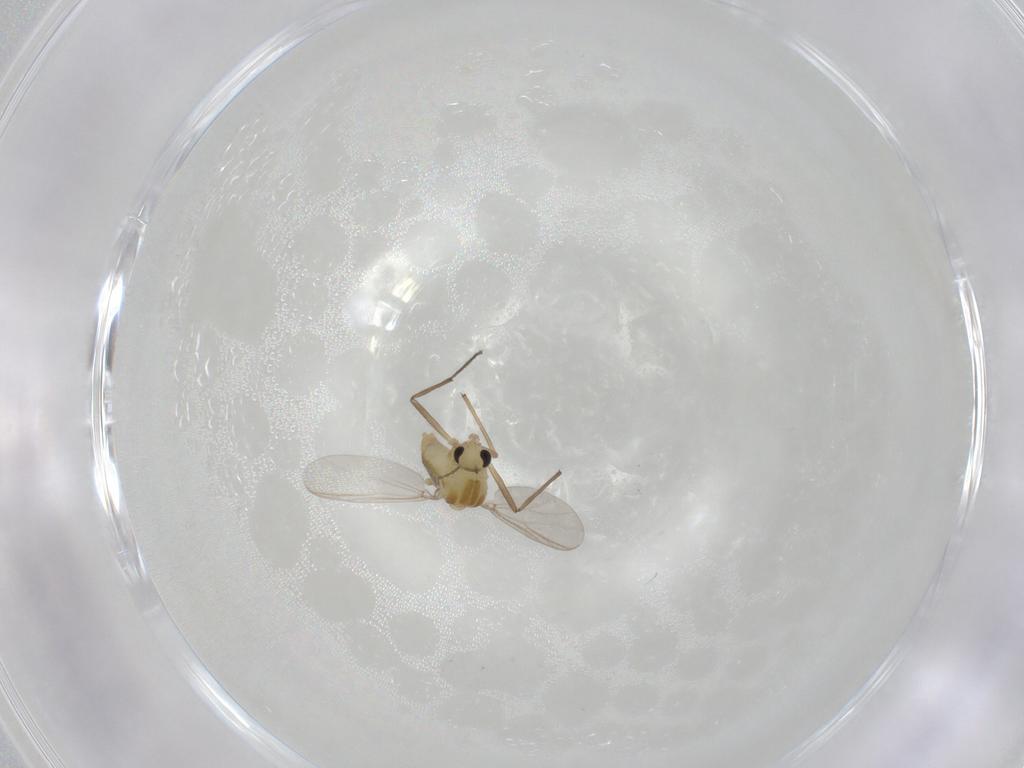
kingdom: Animalia
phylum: Arthropoda
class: Insecta
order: Diptera
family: Chironomidae
